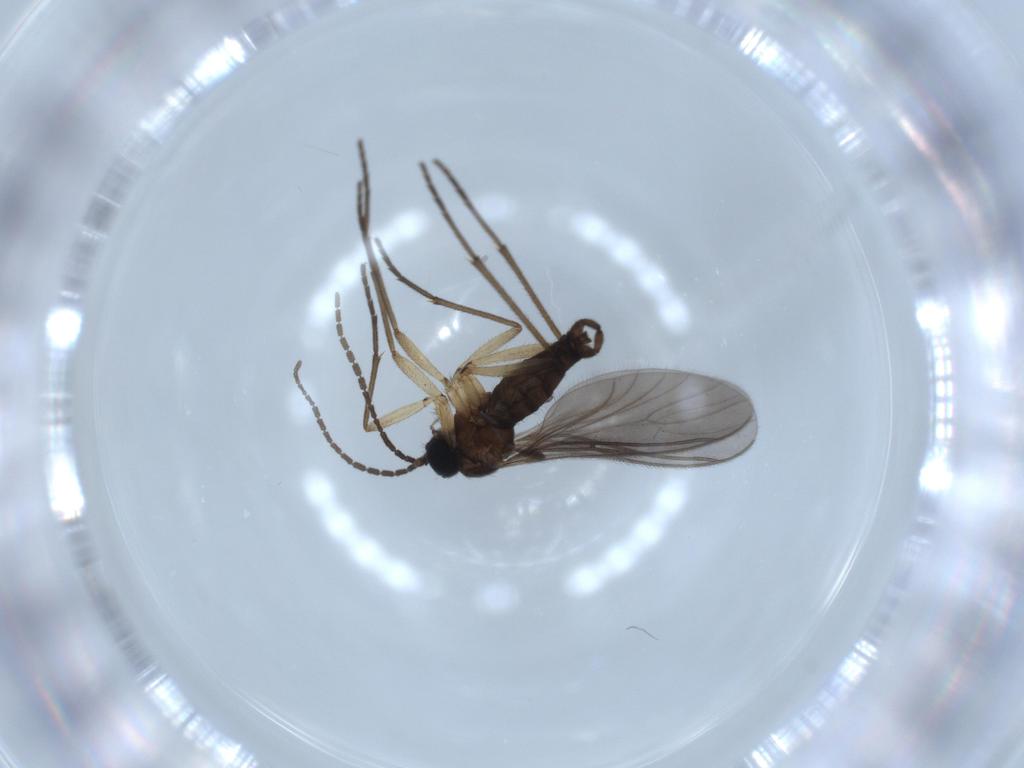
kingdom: Animalia
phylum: Arthropoda
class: Insecta
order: Diptera
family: Sciaridae
